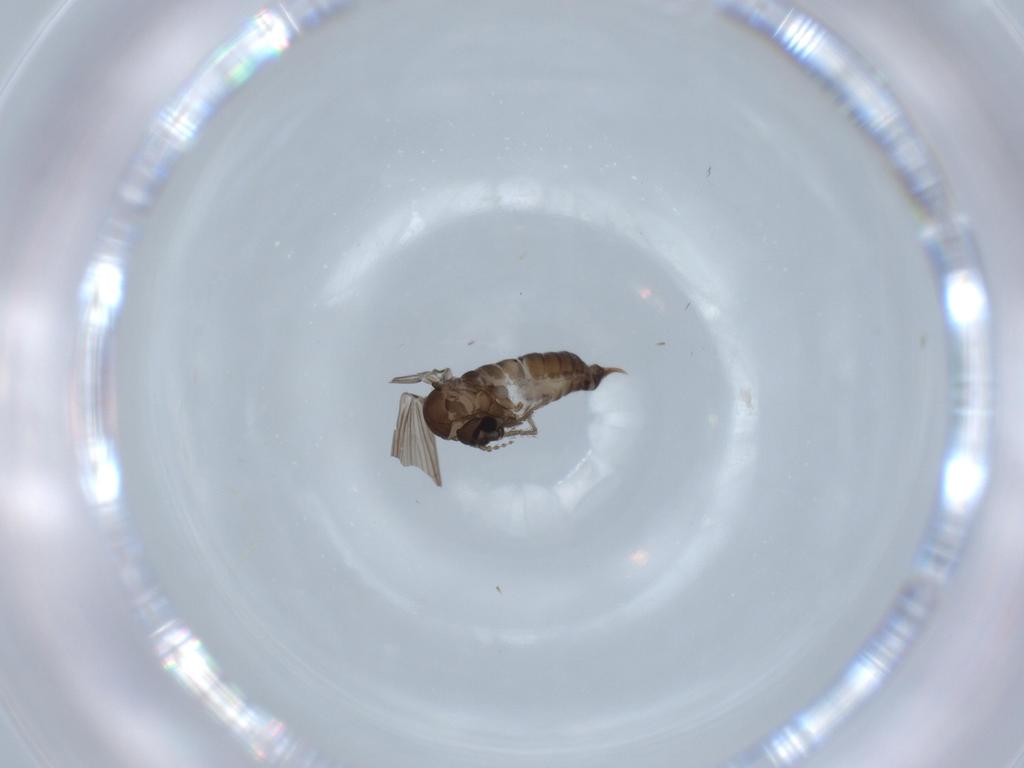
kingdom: Animalia
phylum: Arthropoda
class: Insecta
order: Diptera
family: Psychodidae
